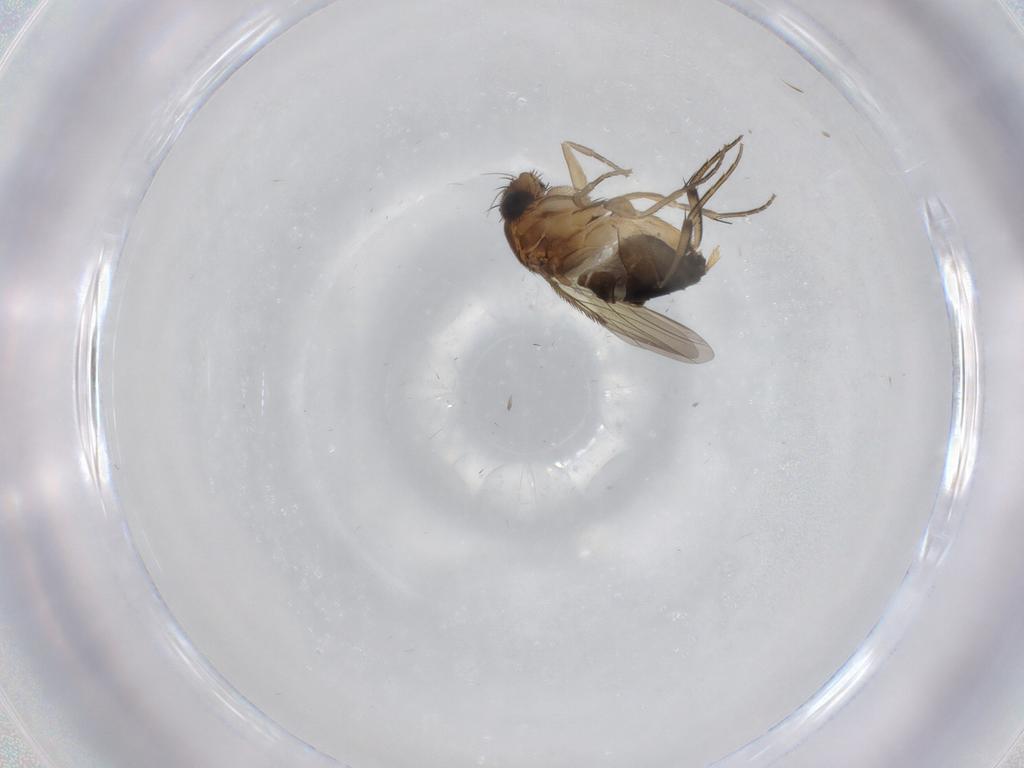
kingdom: Animalia
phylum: Arthropoda
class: Insecta
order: Diptera
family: Phoridae
